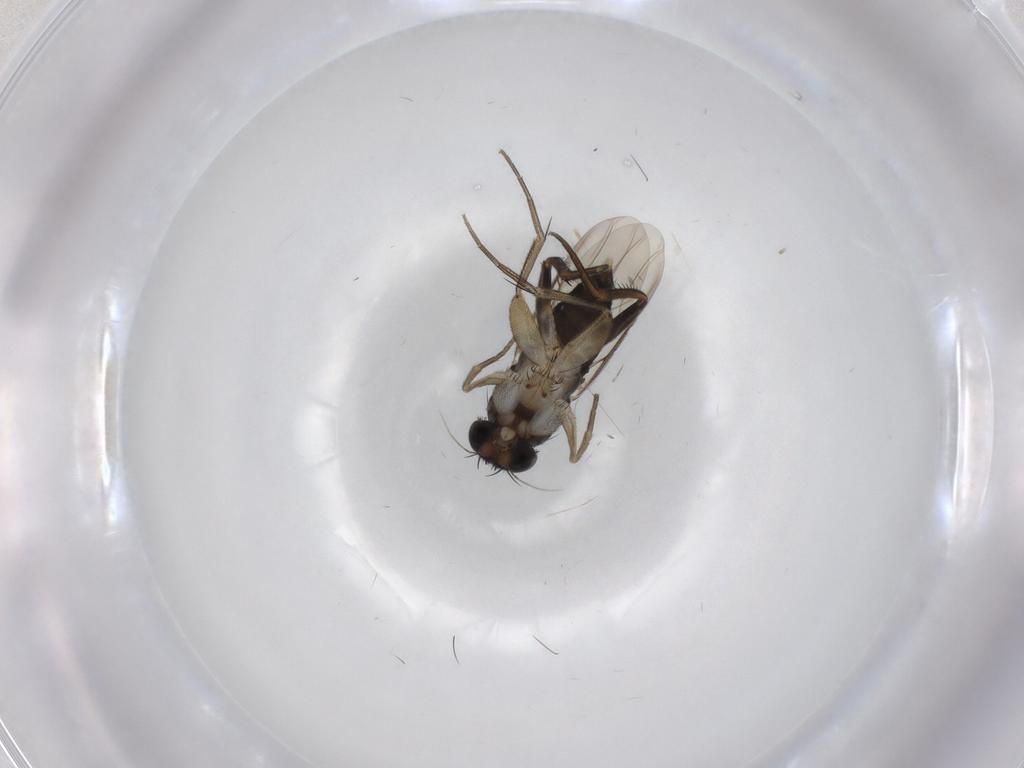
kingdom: Animalia
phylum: Arthropoda
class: Insecta
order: Diptera
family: Phoridae
